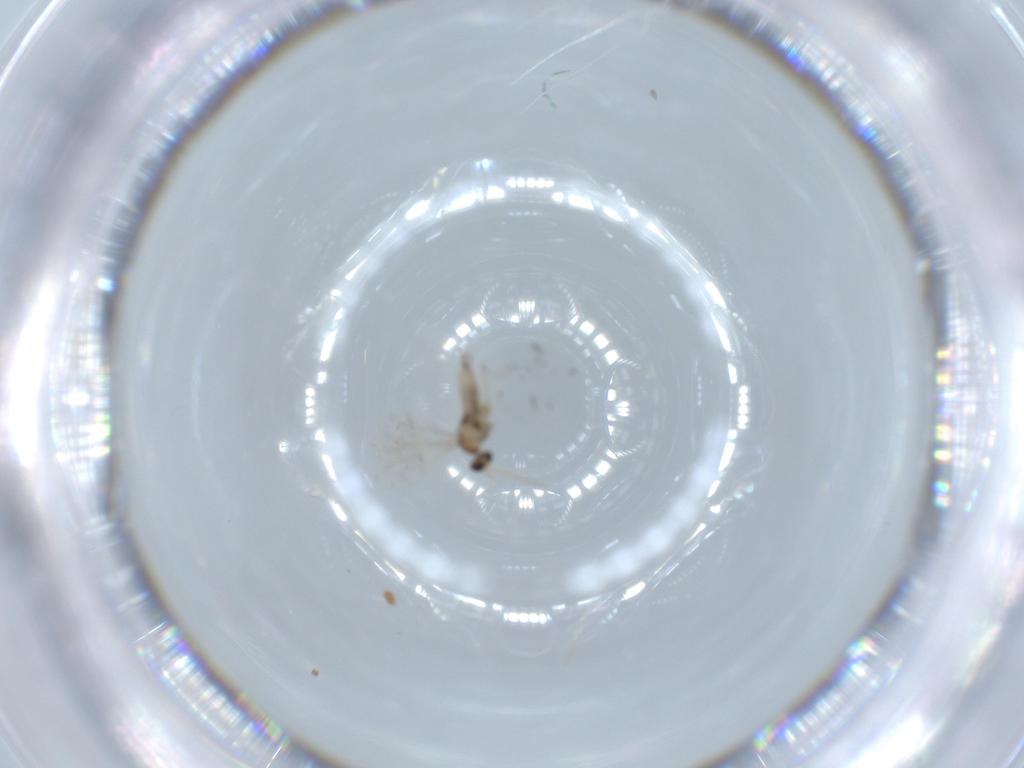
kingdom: Animalia
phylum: Arthropoda
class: Insecta
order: Diptera
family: Cecidomyiidae
